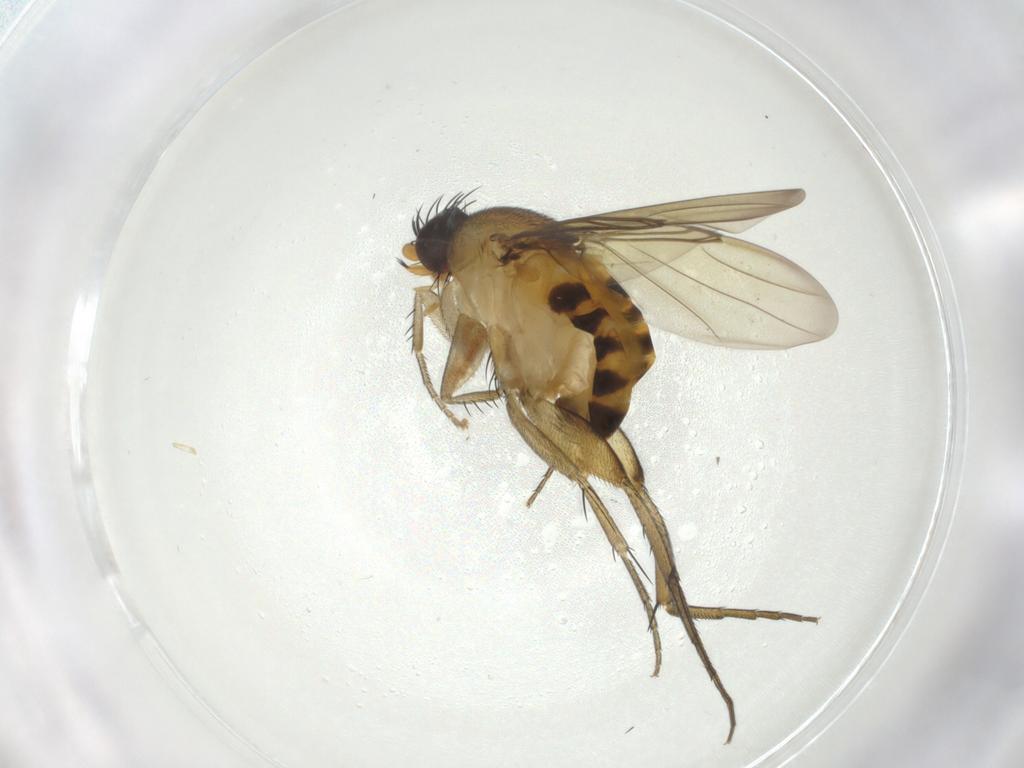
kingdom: Animalia
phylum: Arthropoda
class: Insecta
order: Diptera
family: Phoridae
